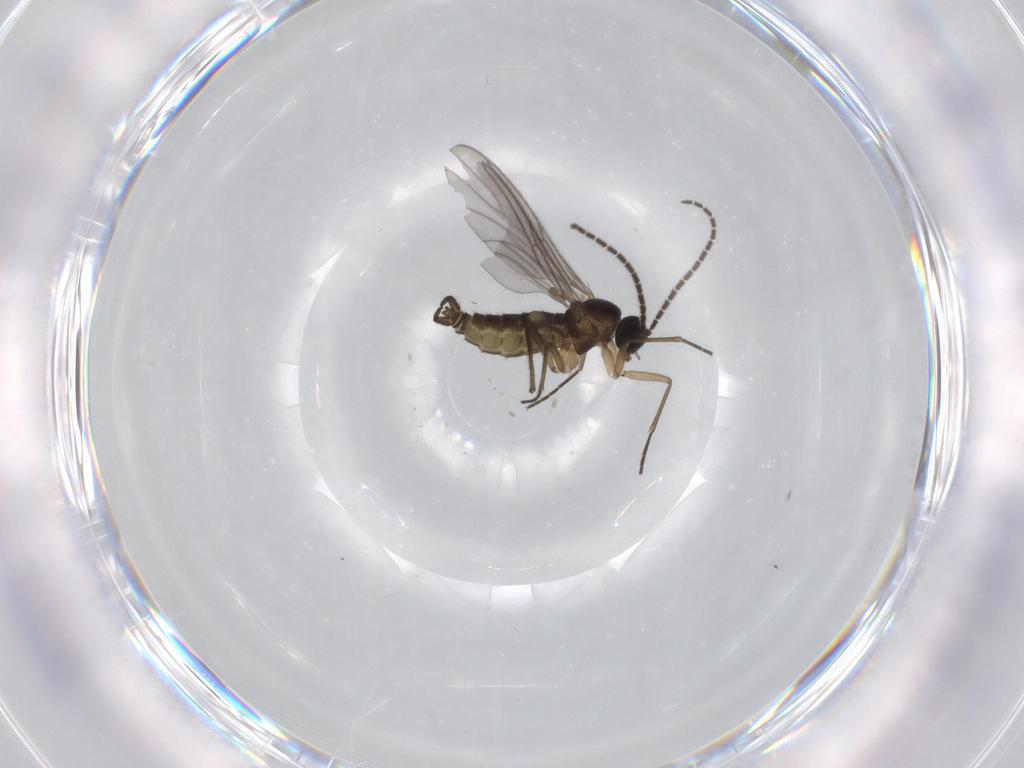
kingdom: Animalia
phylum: Arthropoda
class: Insecta
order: Diptera
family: Sciaridae
